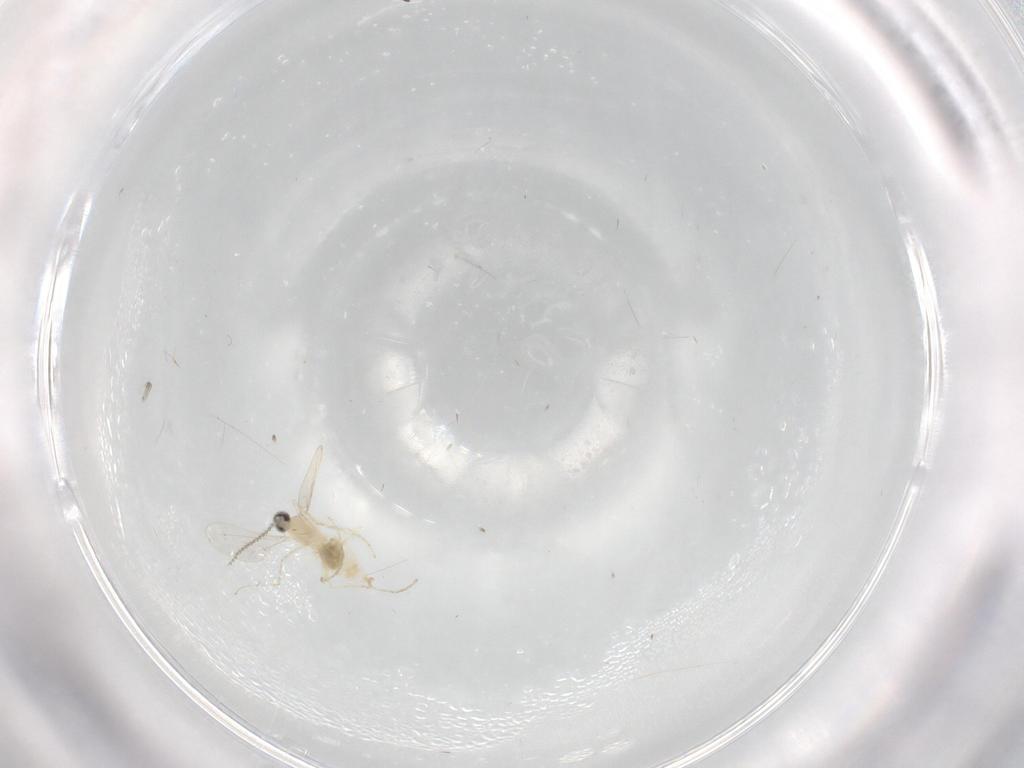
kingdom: Animalia
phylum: Arthropoda
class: Insecta
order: Diptera
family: Cecidomyiidae
